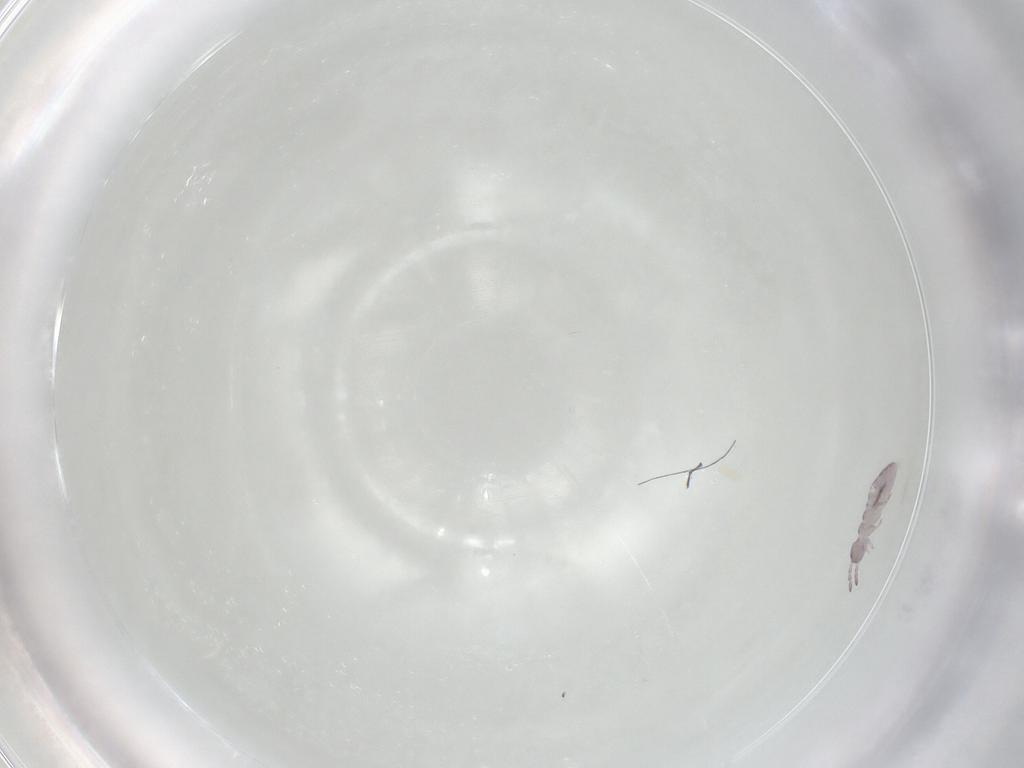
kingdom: Animalia
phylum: Arthropoda
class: Collembola
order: Entomobryomorpha
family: Isotomidae
